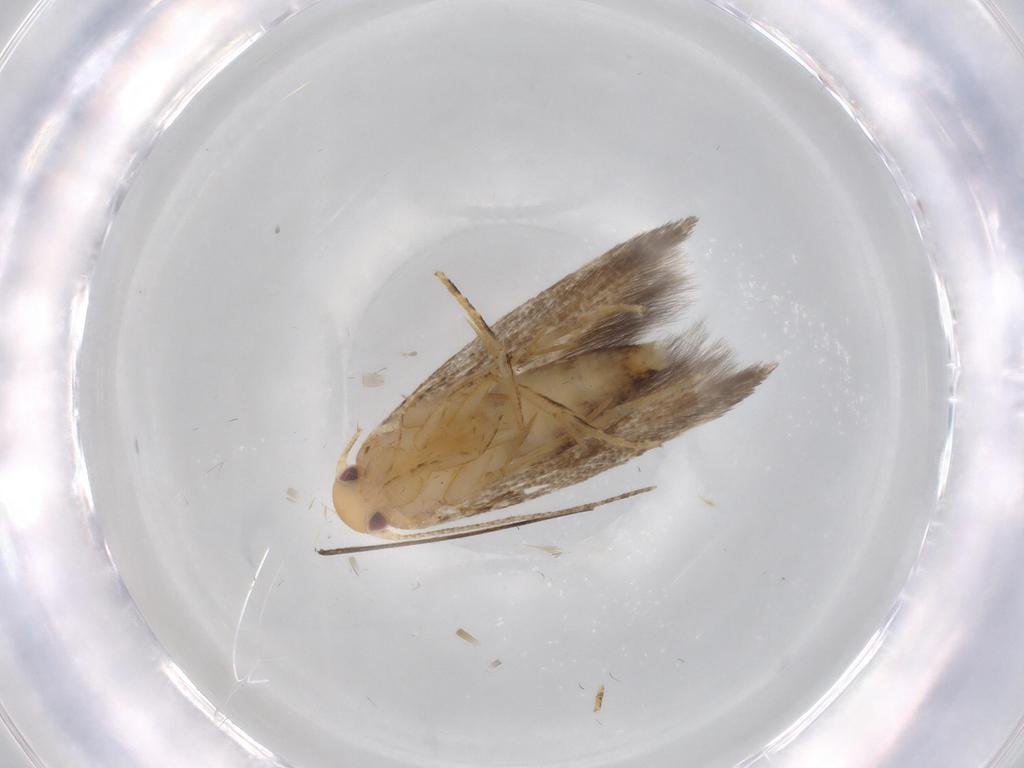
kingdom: Animalia
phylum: Arthropoda
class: Insecta
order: Lepidoptera
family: Momphidae
